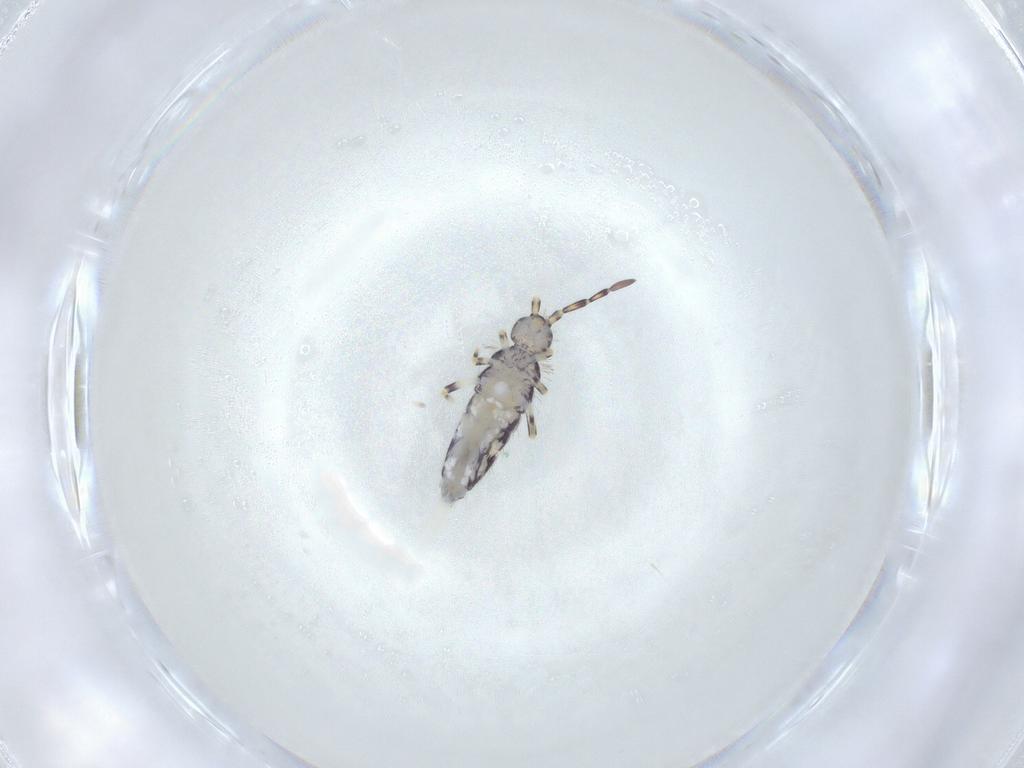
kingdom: Animalia
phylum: Arthropoda
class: Collembola
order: Entomobryomorpha
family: Entomobryidae
